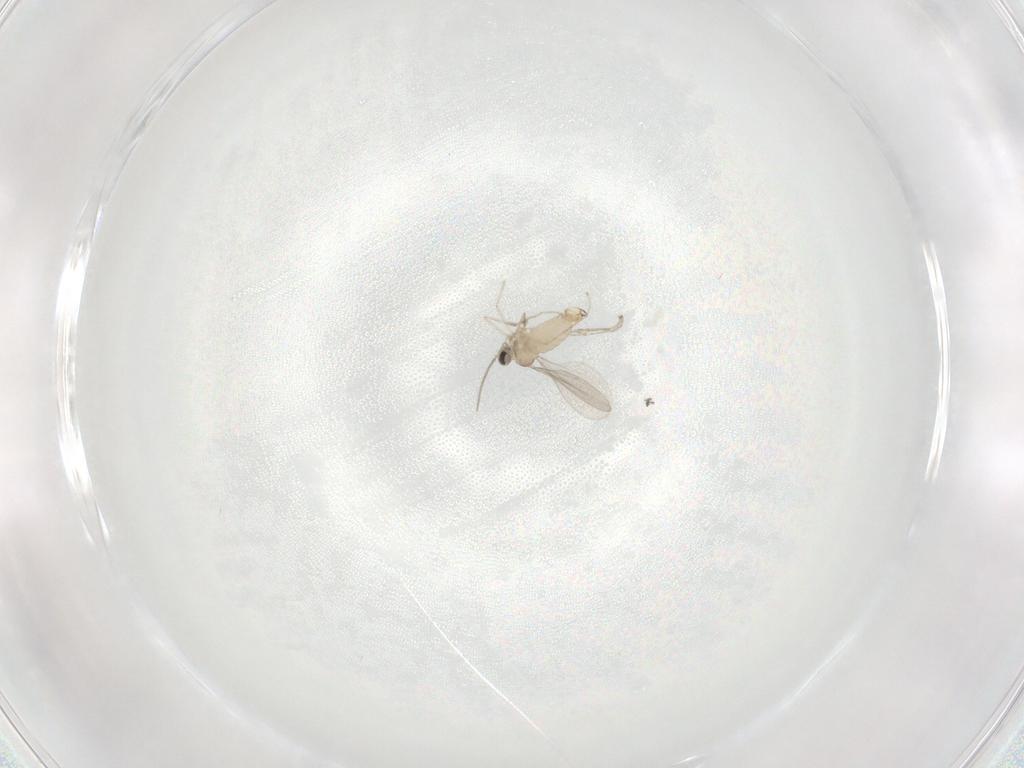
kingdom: Animalia
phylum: Arthropoda
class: Insecta
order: Diptera
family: Cecidomyiidae
